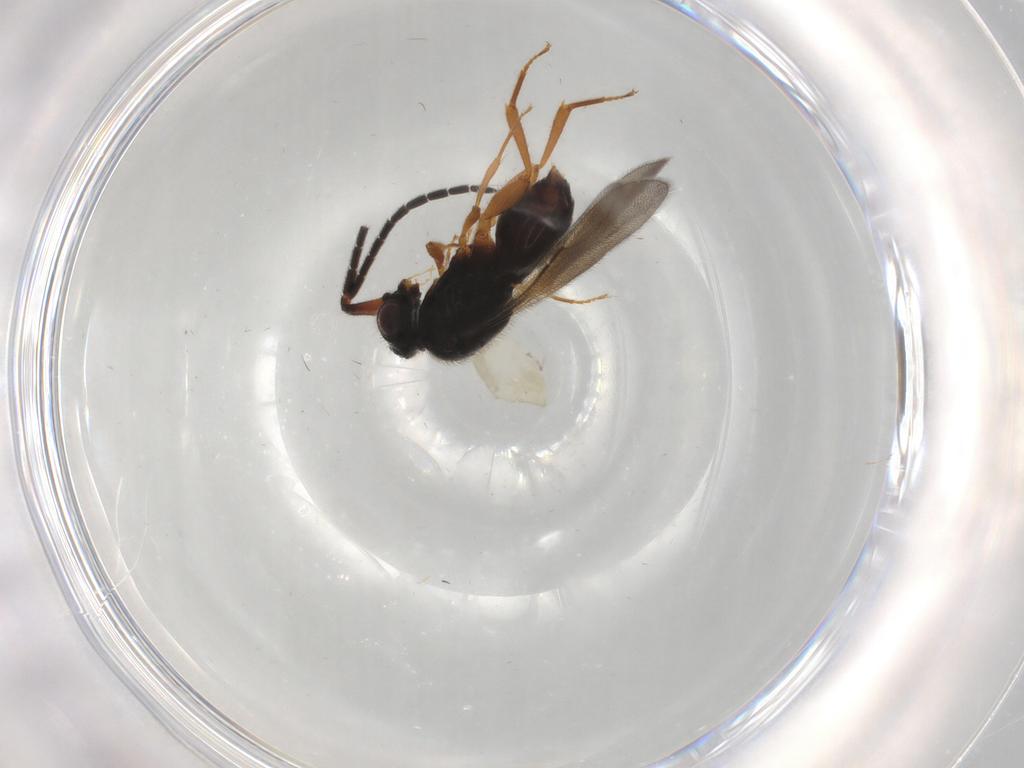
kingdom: Animalia
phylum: Arthropoda
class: Insecta
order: Hymenoptera
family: Ceraphronidae
